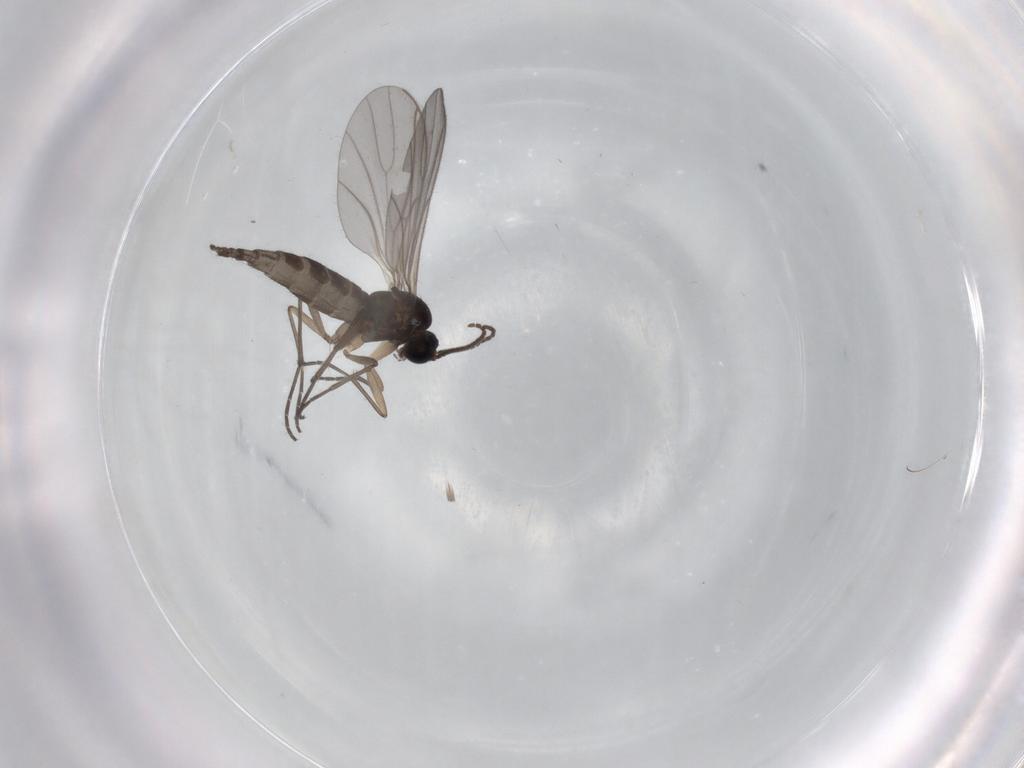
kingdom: Animalia
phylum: Arthropoda
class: Insecta
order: Diptera
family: Sciaridae
